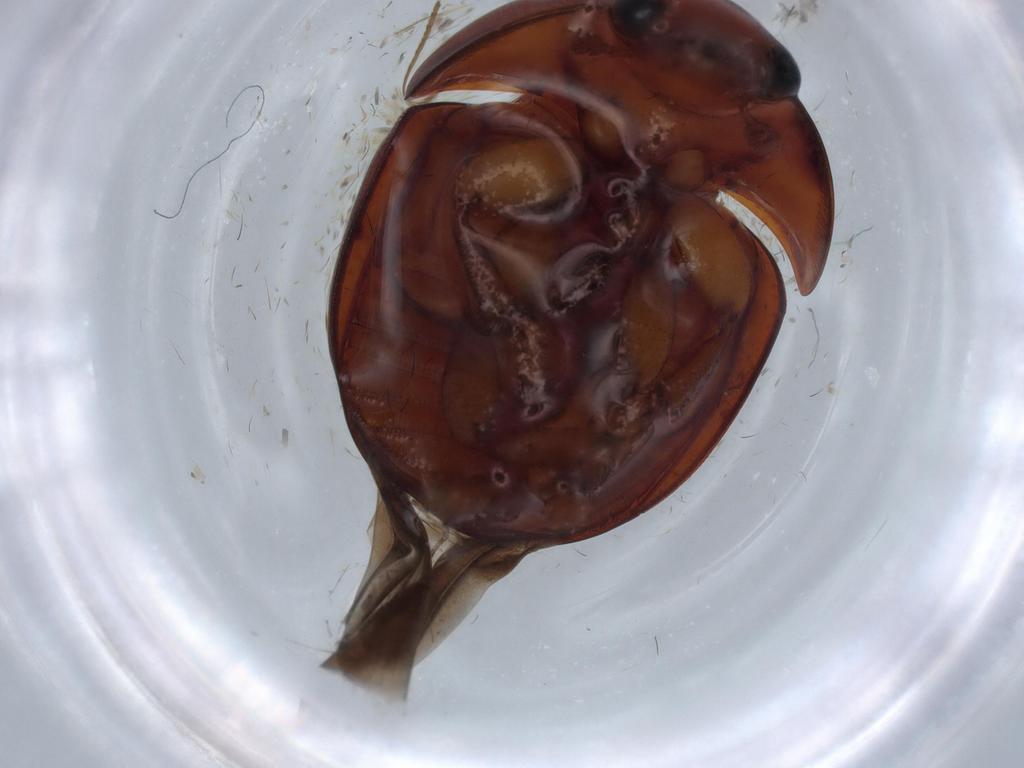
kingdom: Animalia
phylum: Arthropoda
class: Insecta
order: Coleoptera
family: Nitidulidae
